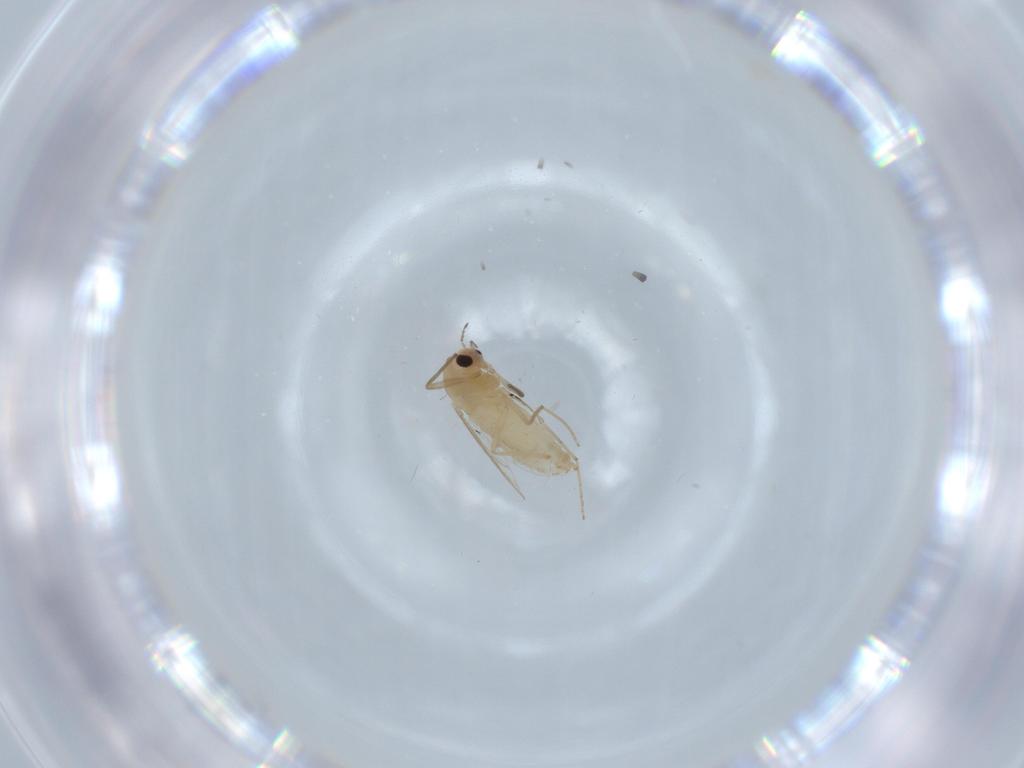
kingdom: Animalia
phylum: Arthropoda
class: Insecta
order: Diptera
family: Chironomidae
